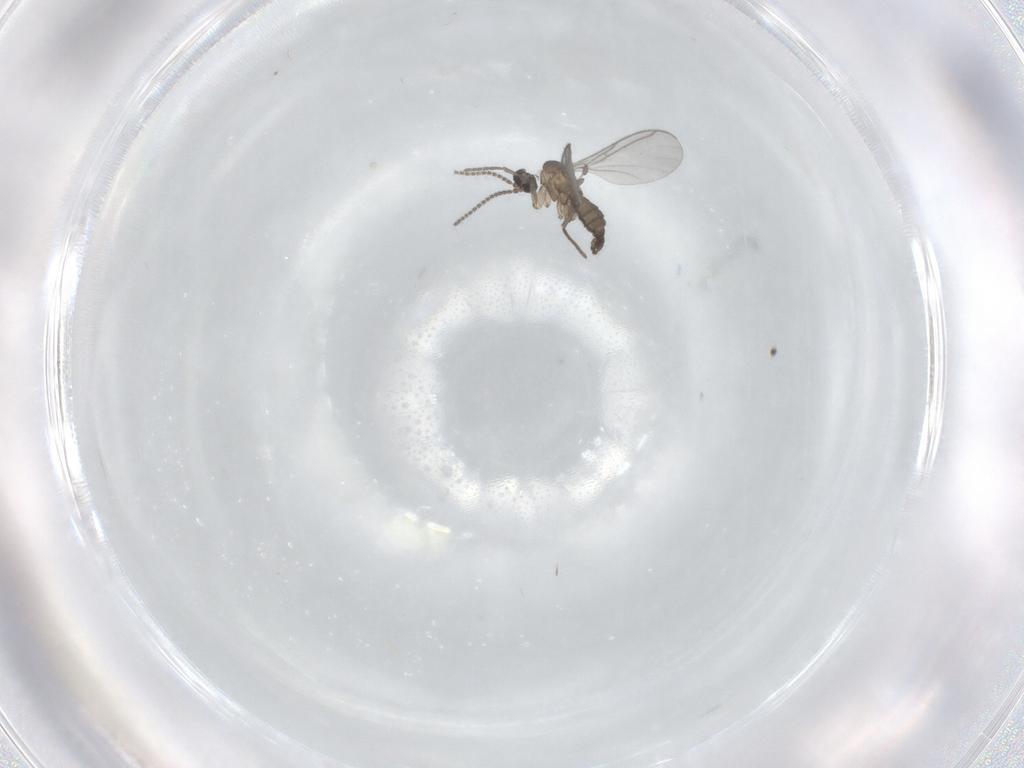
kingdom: Animalia
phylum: Arthropoda
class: Insecta
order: Diptera
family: Sciaridae
